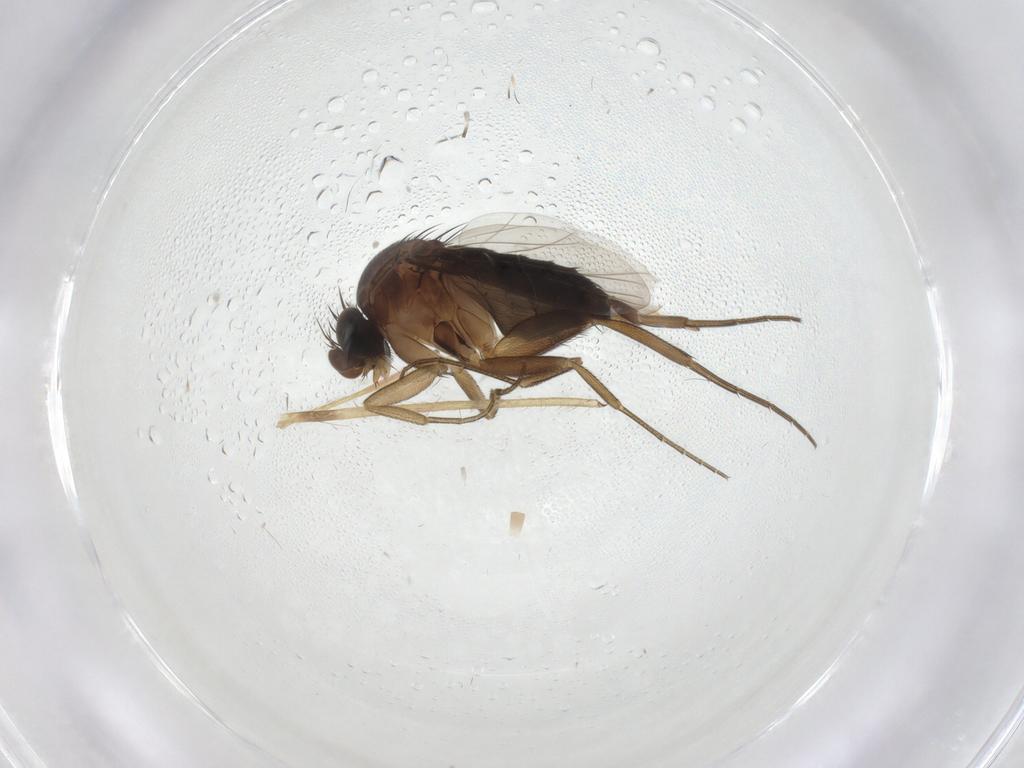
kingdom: Animalia
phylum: Arthropoda
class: Insecta
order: Diptera
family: Phoridae
